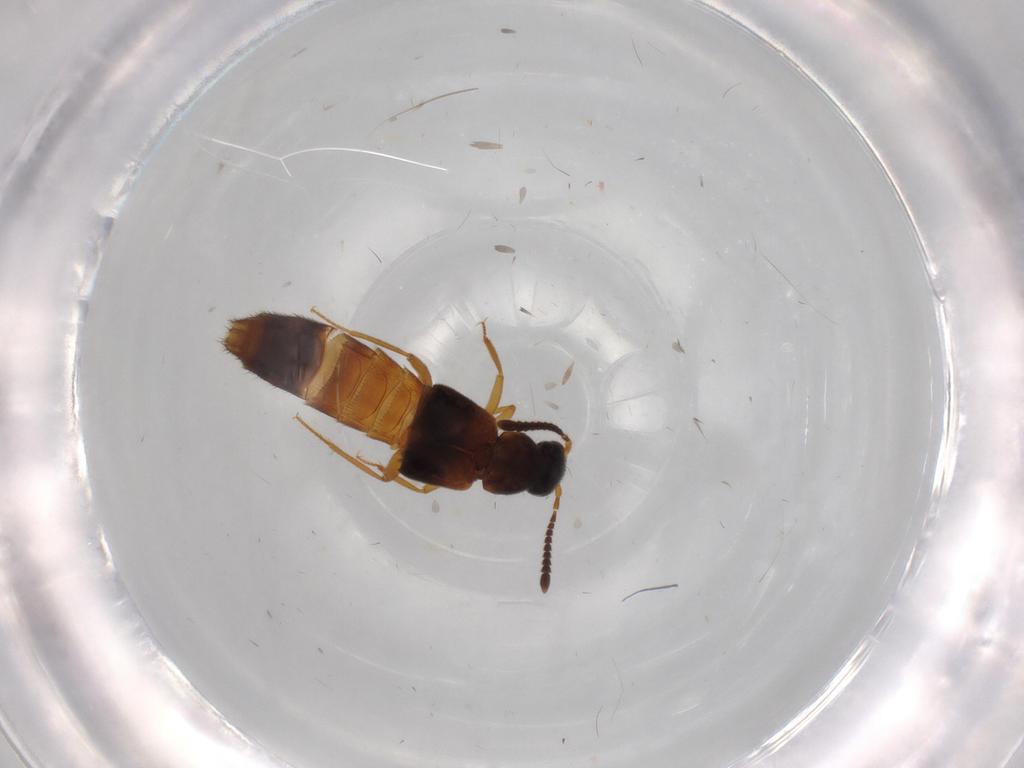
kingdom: Animalia
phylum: Arthropoda
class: Insecta
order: Coleoptera
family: Staphylinidae
